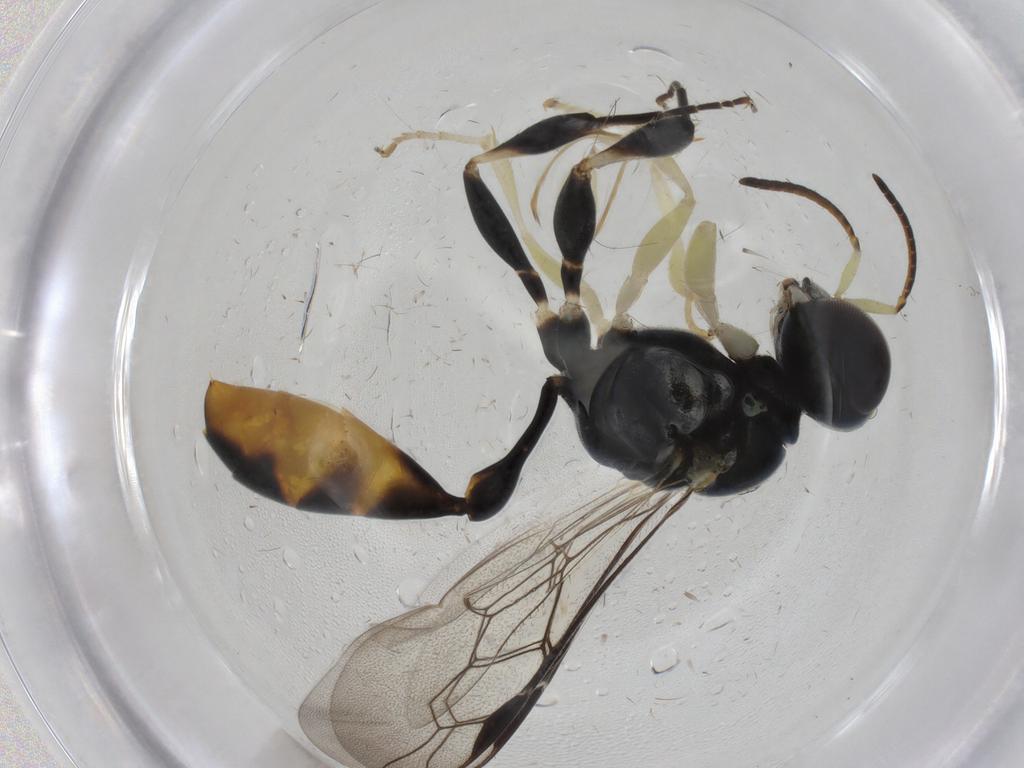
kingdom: Animalia
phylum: Arthropoda
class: Insecta
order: Hymenoptera
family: Crabronidae
